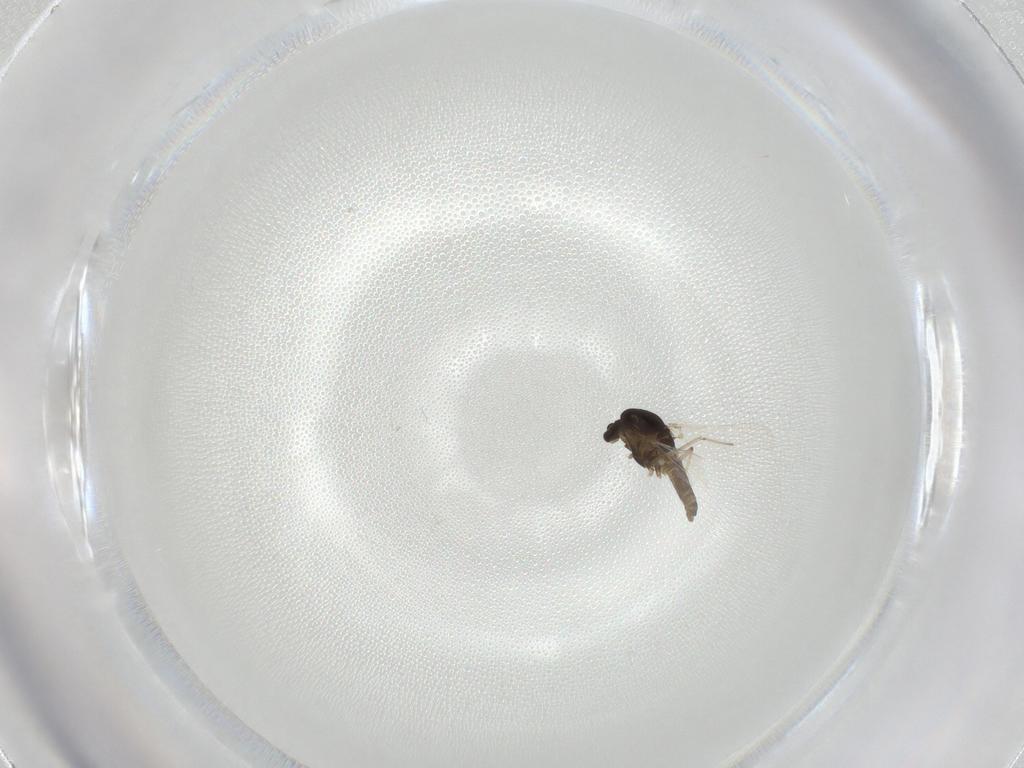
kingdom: Animalia
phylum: Arthropoda
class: Insecta
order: Diptera
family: Chironomidae
